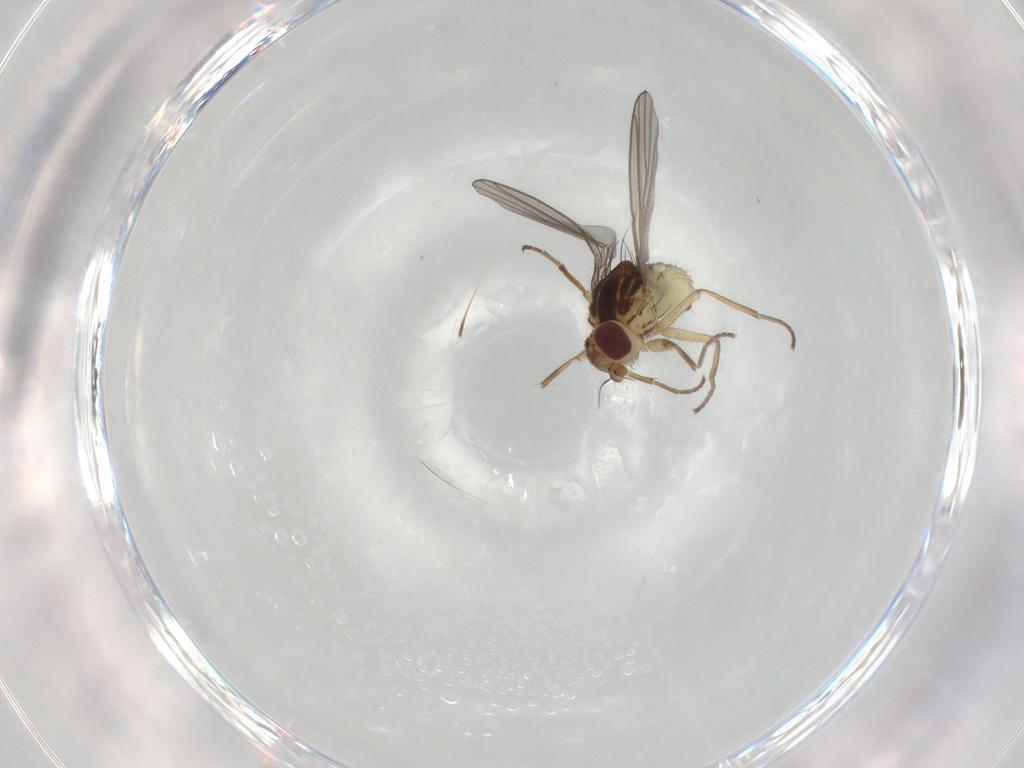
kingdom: Animalia
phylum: Arthropoda
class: Insecta
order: Diptera
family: Agromyzidae
